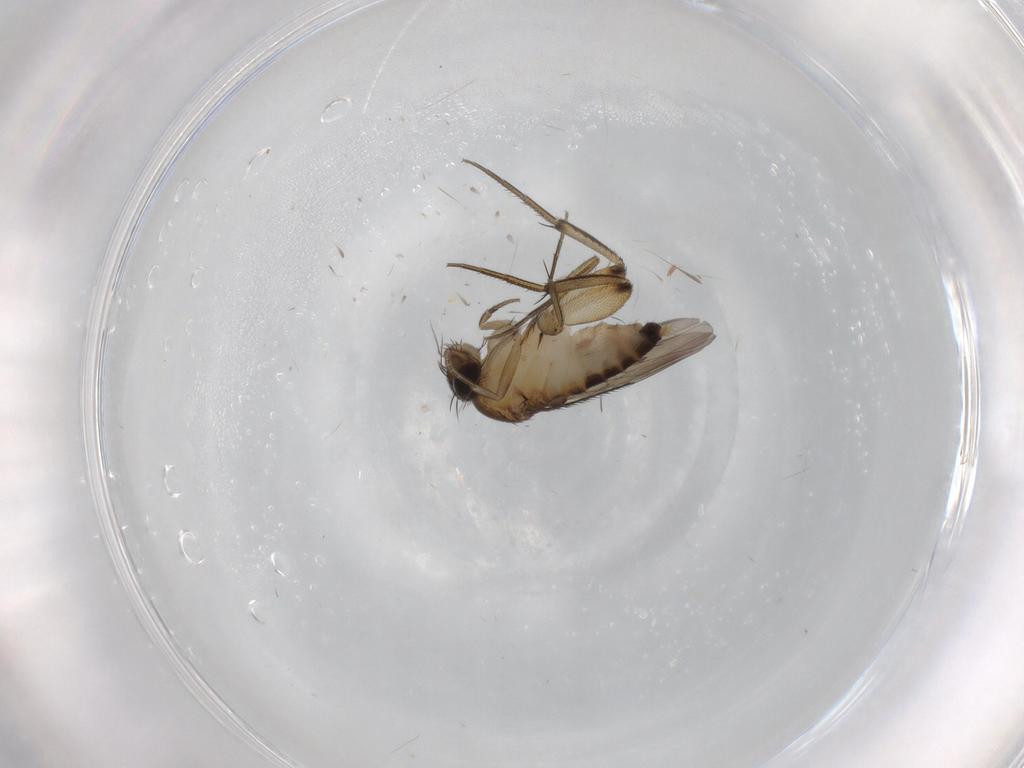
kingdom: Animalia
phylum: Arthropoda
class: Insecta
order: Diptera
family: Phoridae
